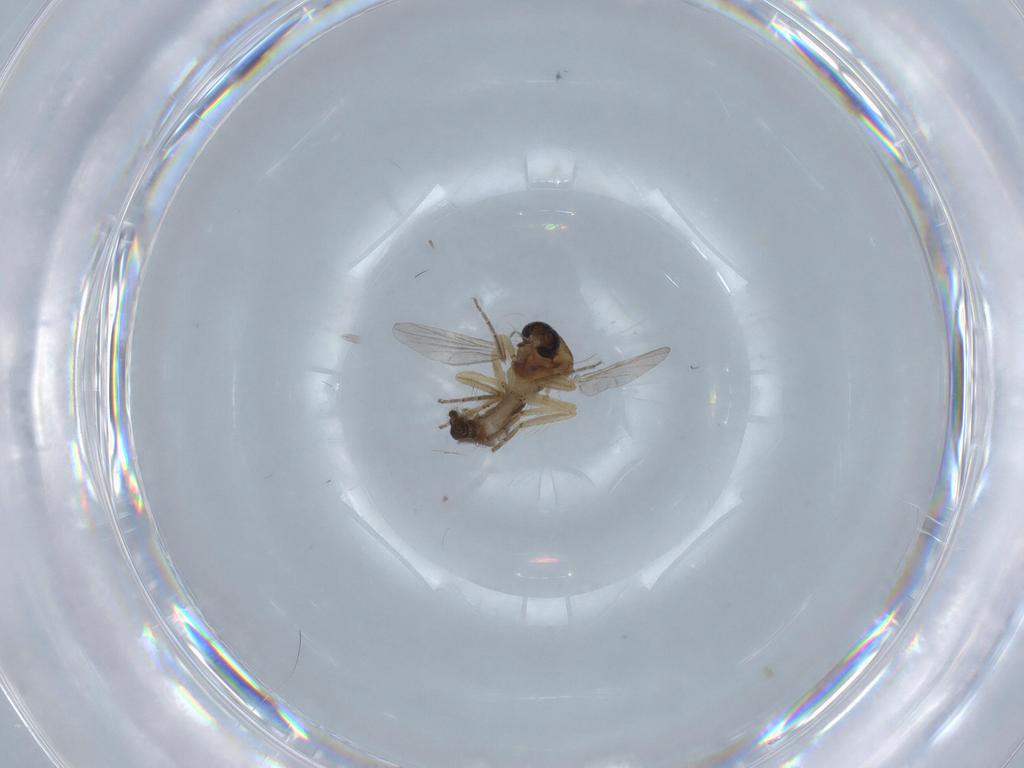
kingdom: Animalia
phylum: Arthropoda
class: Insecta
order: Diptera
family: Ceratopogonidae
